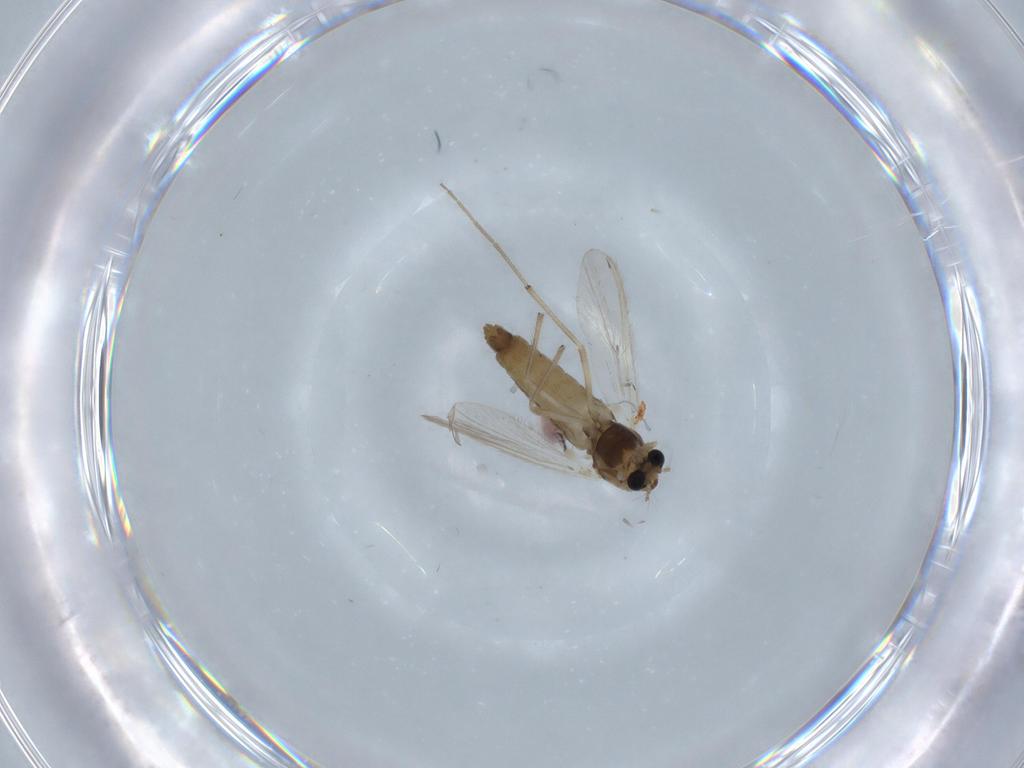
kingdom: Animalia
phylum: Arthropoda
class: Insecta
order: Diptera
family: Chironomidae
